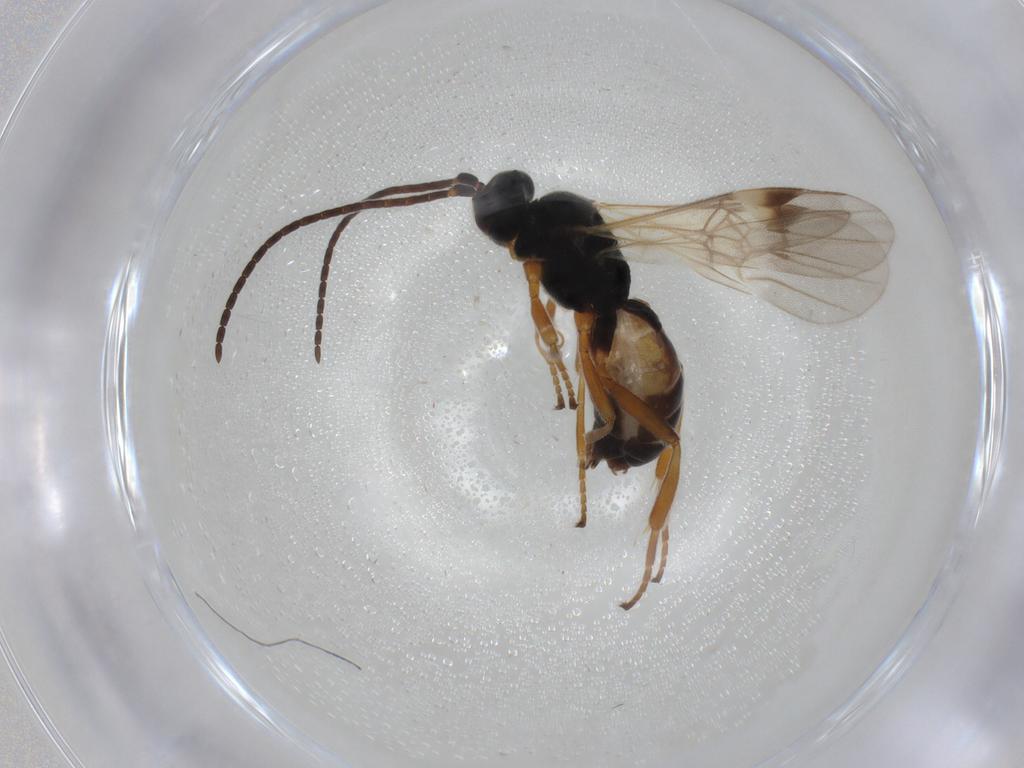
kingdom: Animalia
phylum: Arthropoda
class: Insecta
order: Hymenoptera
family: Braconidae
